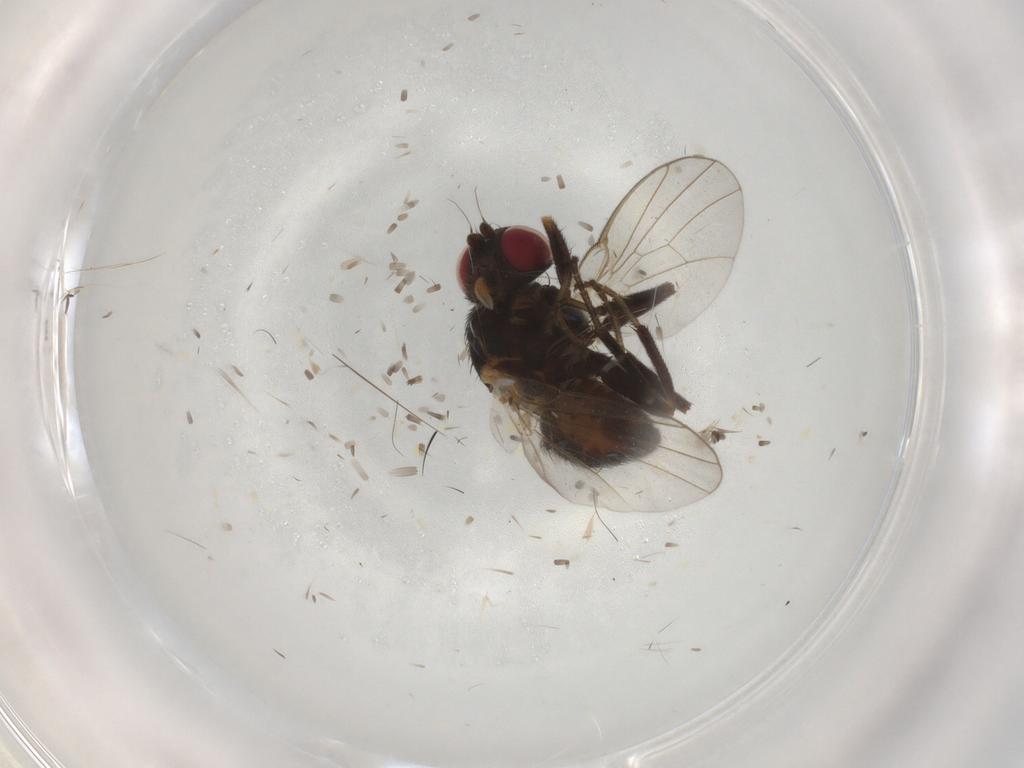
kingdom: Animalia
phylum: Arthropoda
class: Insecta
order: Diptera
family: Agromyzidae
